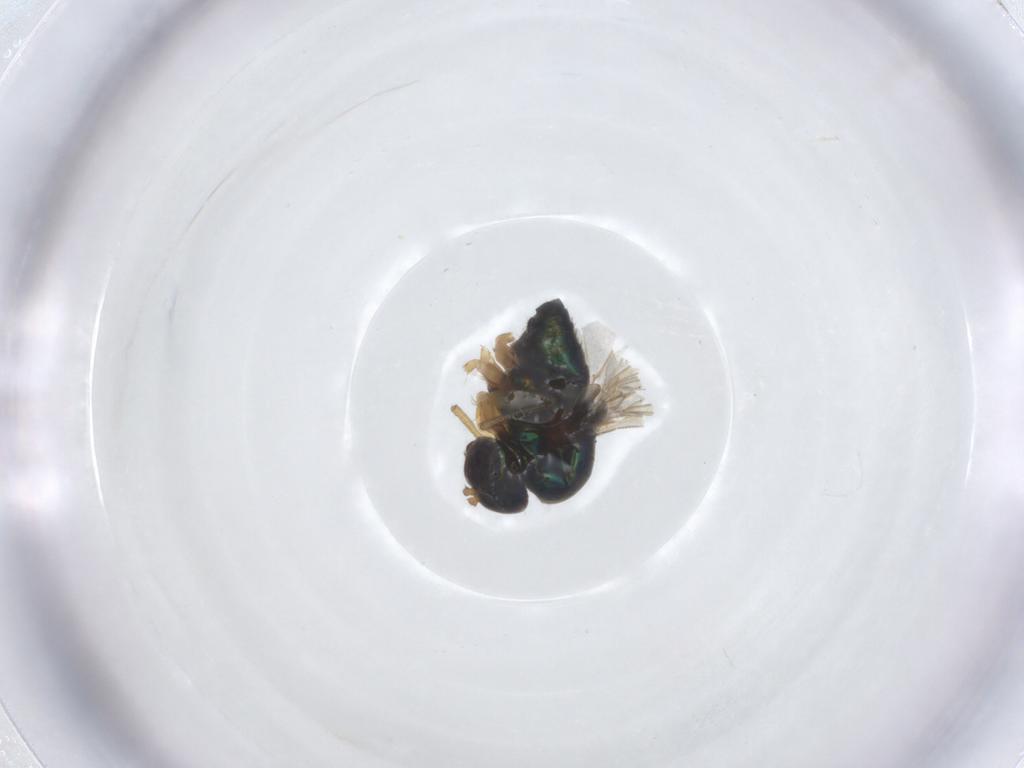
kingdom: Animalia
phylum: Arthropoda
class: Insecta
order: Diptera
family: Dolichopodidae
